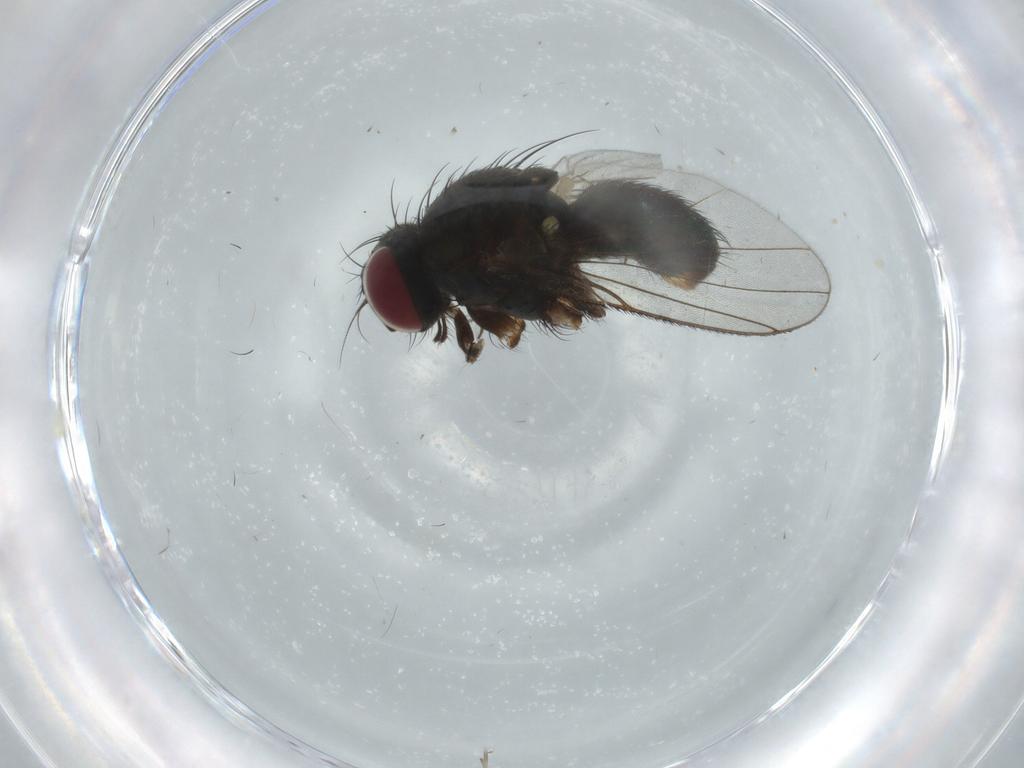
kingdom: Animalia
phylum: Arthropoda
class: Insecta
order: Diptera
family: Muscidae
